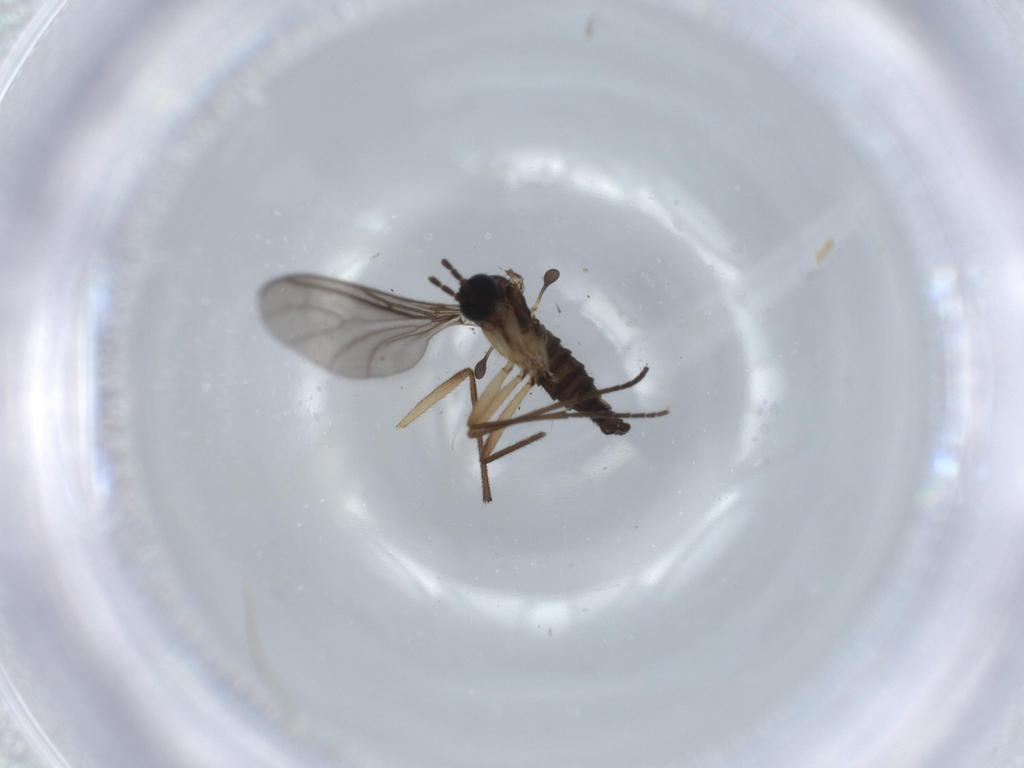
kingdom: Animalia
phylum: Arthropoda
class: Insecta
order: Diptera
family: Sciaridae
